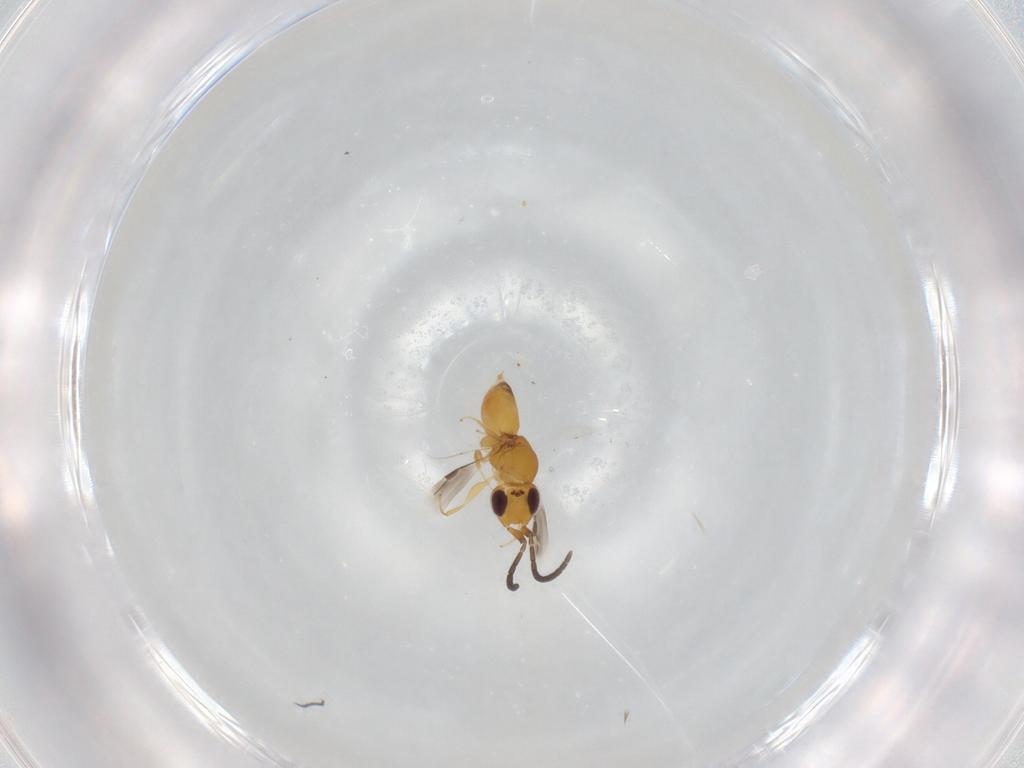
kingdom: Animalia
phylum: Arthropoda
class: Insecta
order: Hymenoptera
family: Megaspilidae
